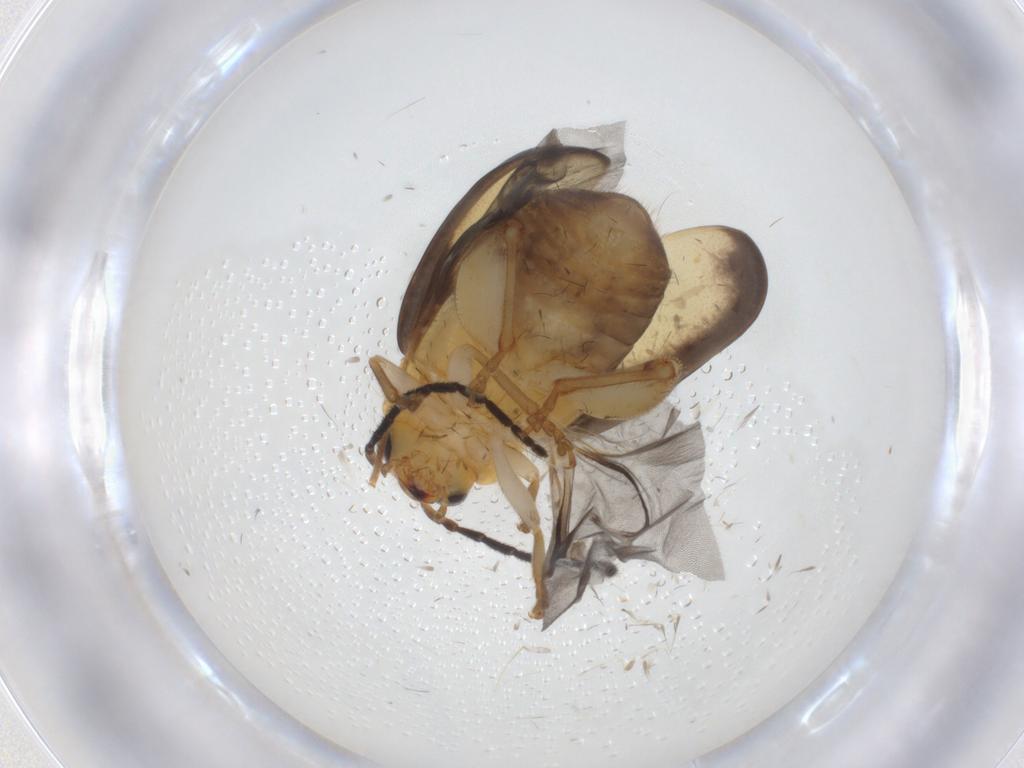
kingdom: Animalia
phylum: Arthropoda
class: Insecta
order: Coleoptera
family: Chrysomelidae
